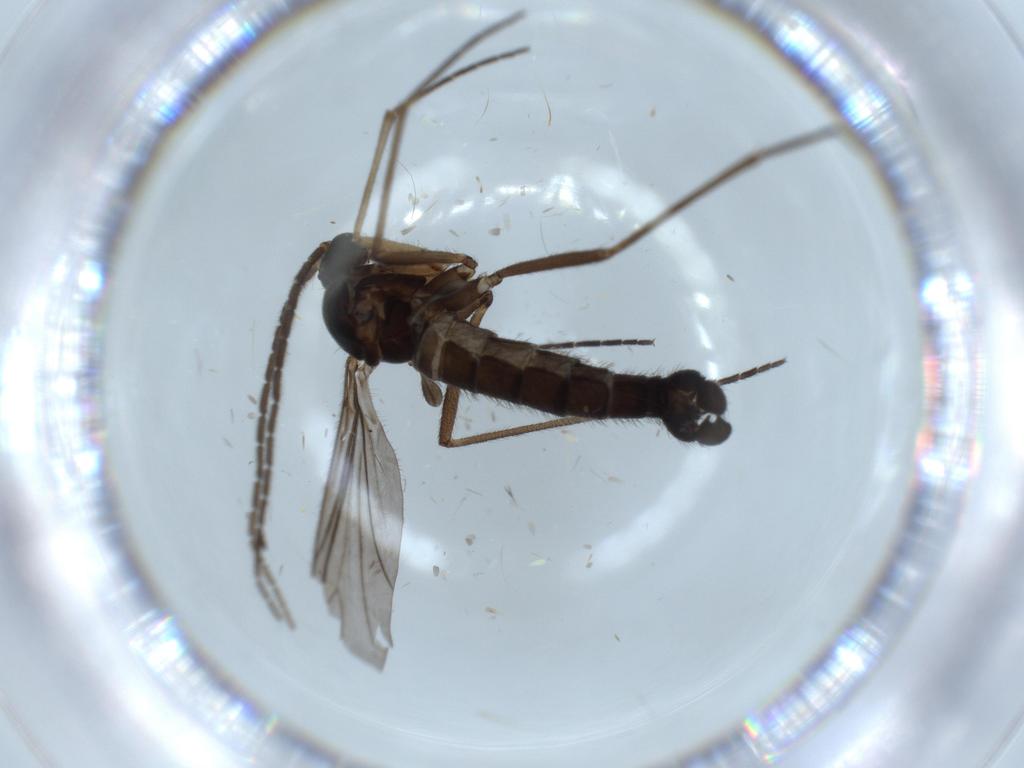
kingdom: Animalia
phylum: Arthropoda
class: Insecta
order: Diptera
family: Sciaridae
